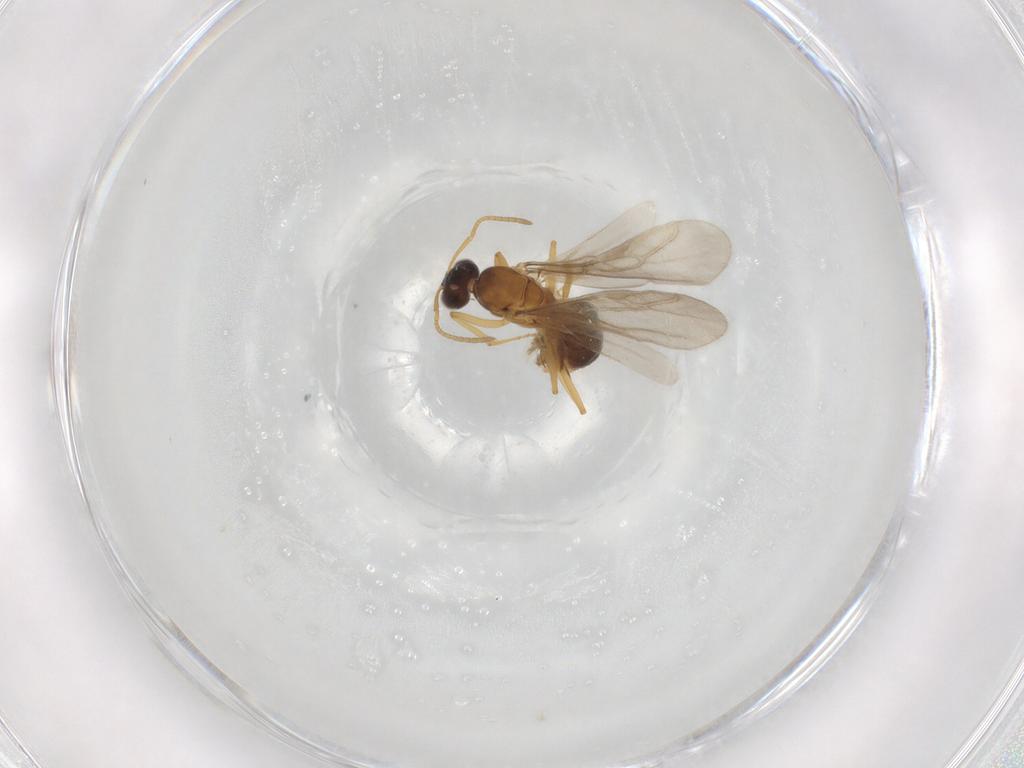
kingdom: Animalia
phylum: Arthropoda
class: Insecta
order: Hymenoptera
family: Formicidae
